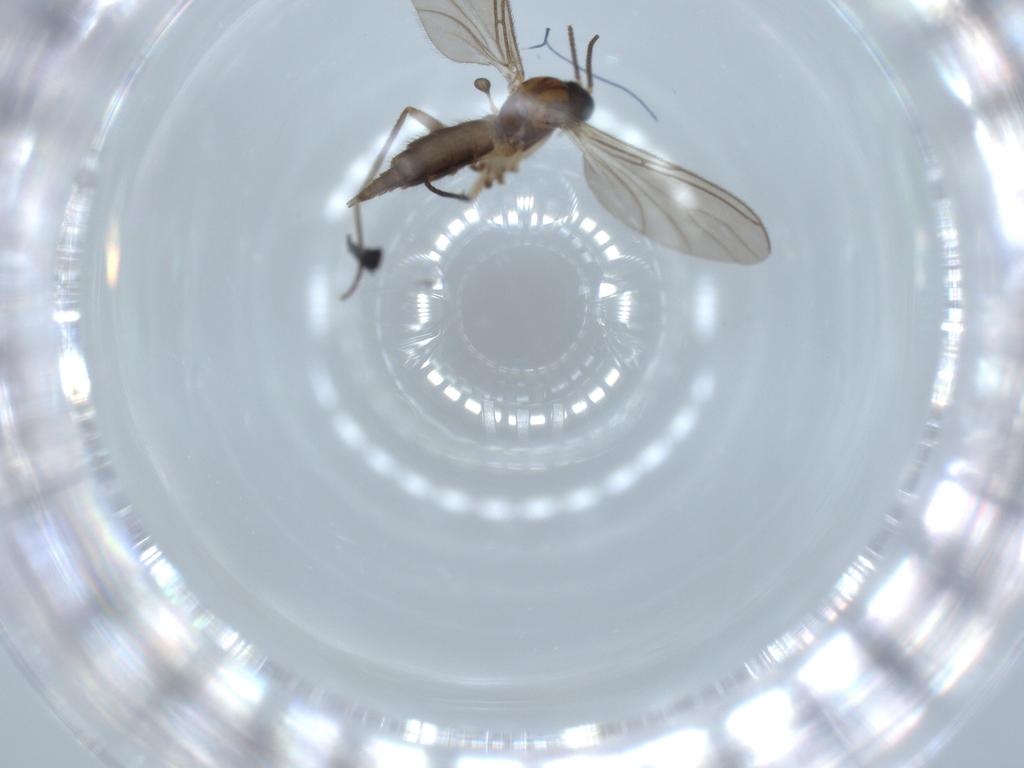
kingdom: Animalia
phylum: Arthropoda
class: Insecta
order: Diptera
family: Sciaridae
